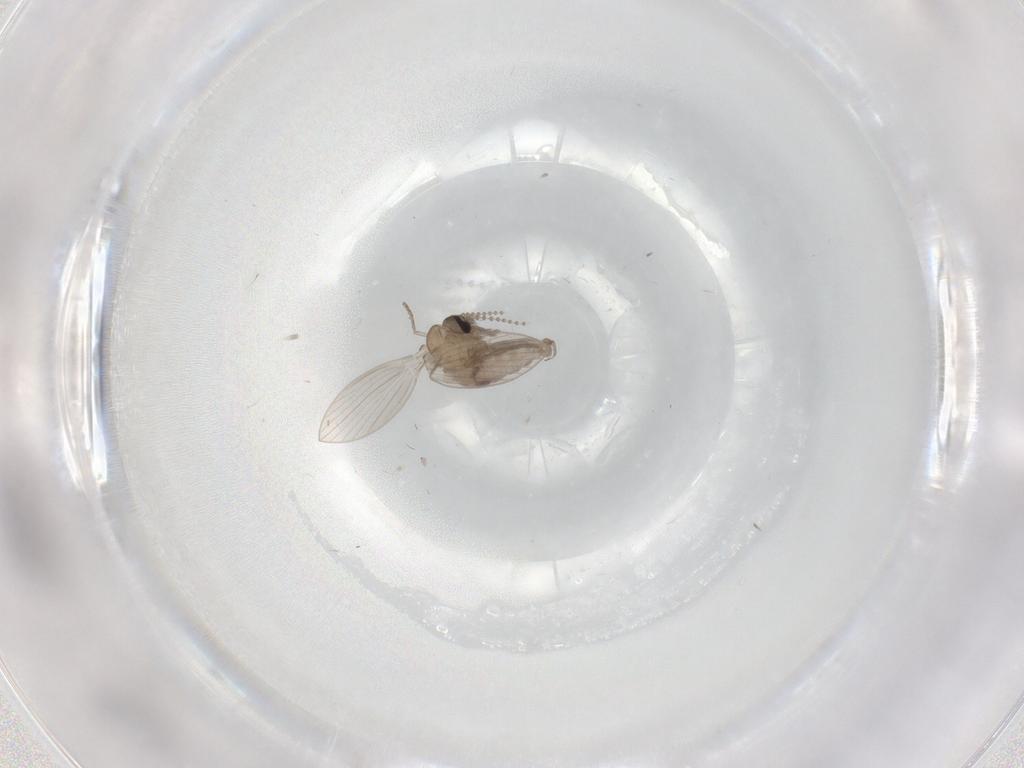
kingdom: Animalia
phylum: Arthropoda
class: Insecta
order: Diptera
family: Psychodidae
